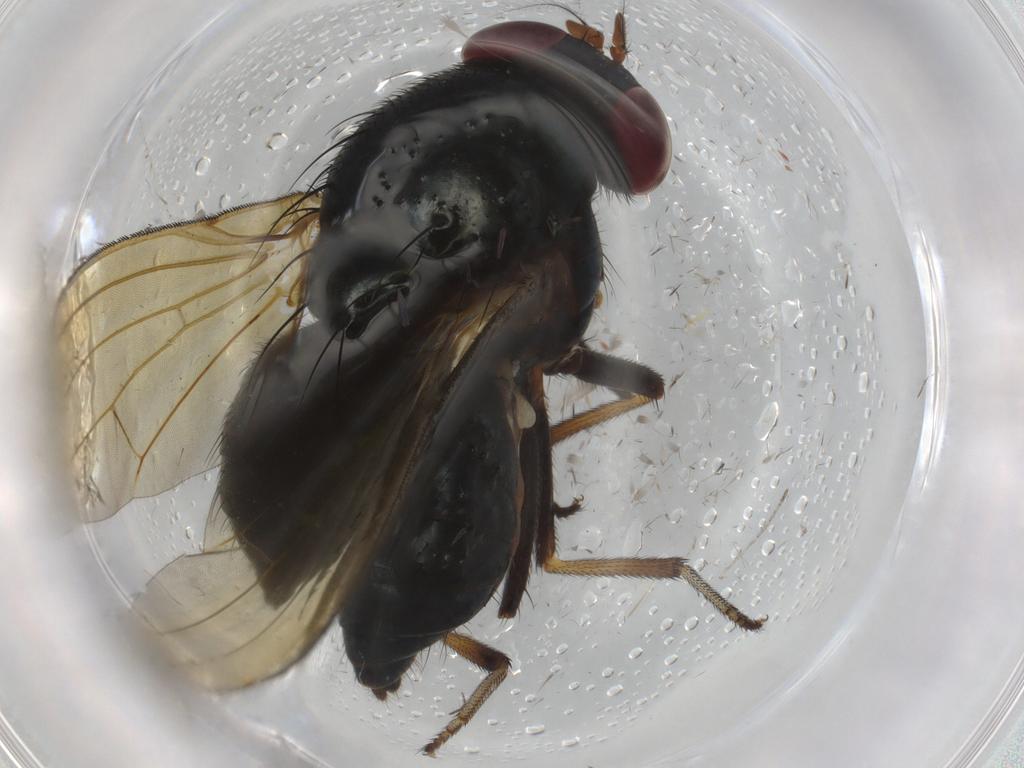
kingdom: Animalia
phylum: Arthropoda
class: Insecta
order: Diptera
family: Lauxaniidae
